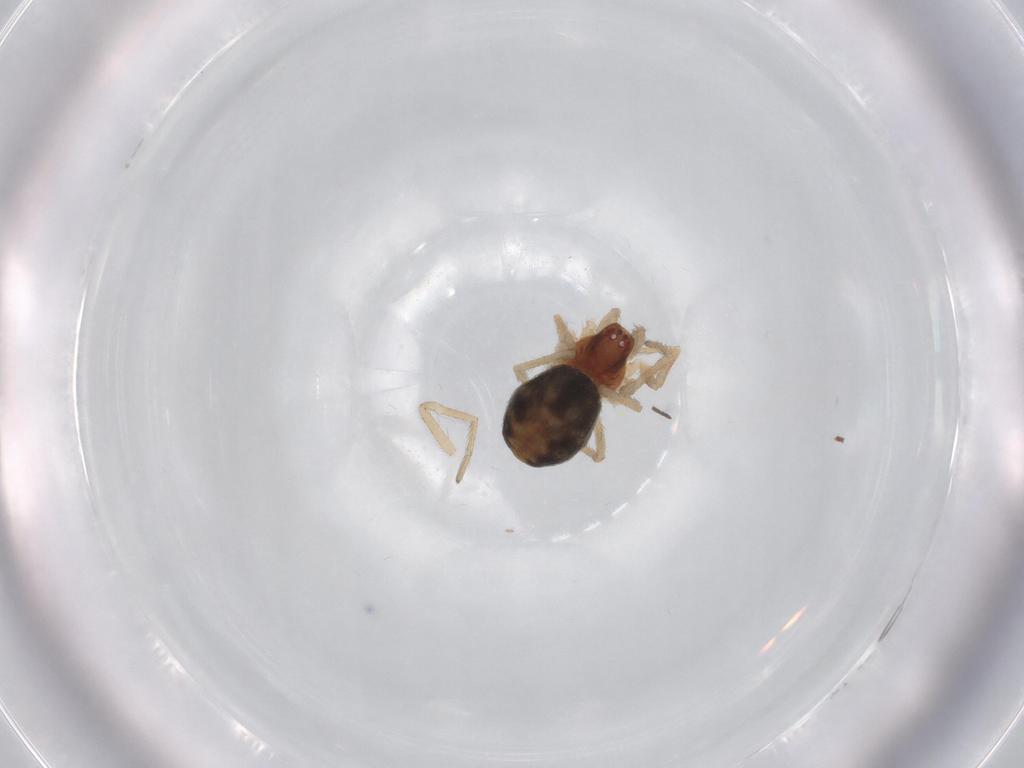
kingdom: Animalia
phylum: Arthropoda
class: Arachnida
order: Araneae
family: Dictynidae
